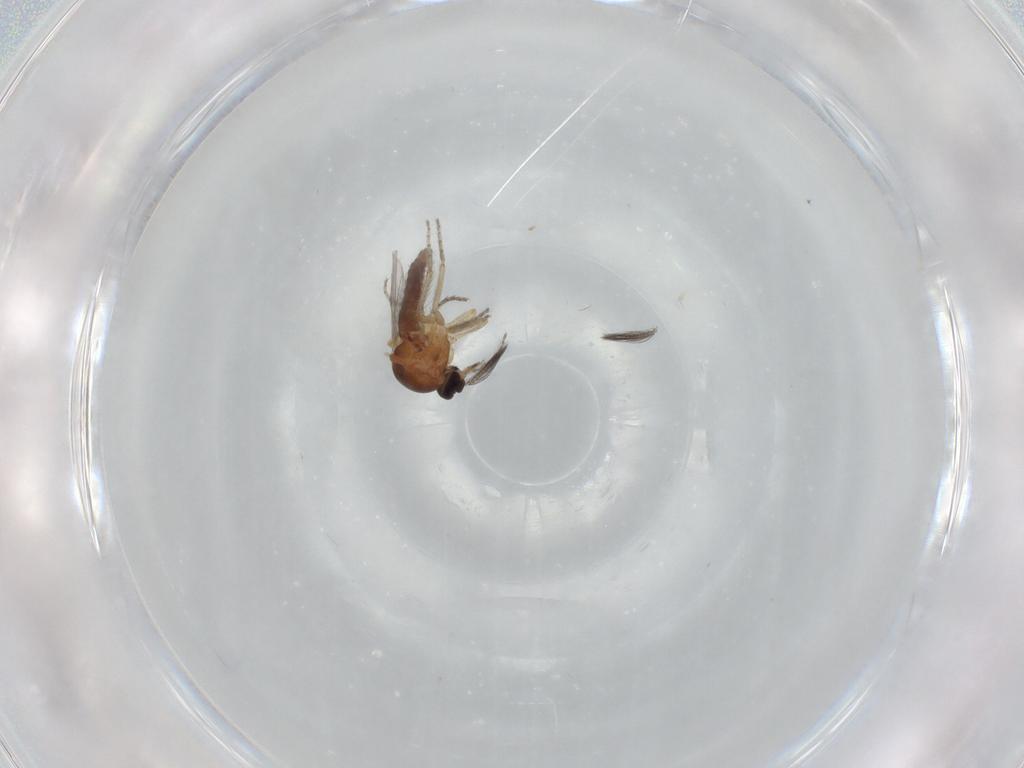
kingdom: Animalia
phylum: Arthropoda
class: Insecta
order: Diptera
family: Ceratopogonidae
